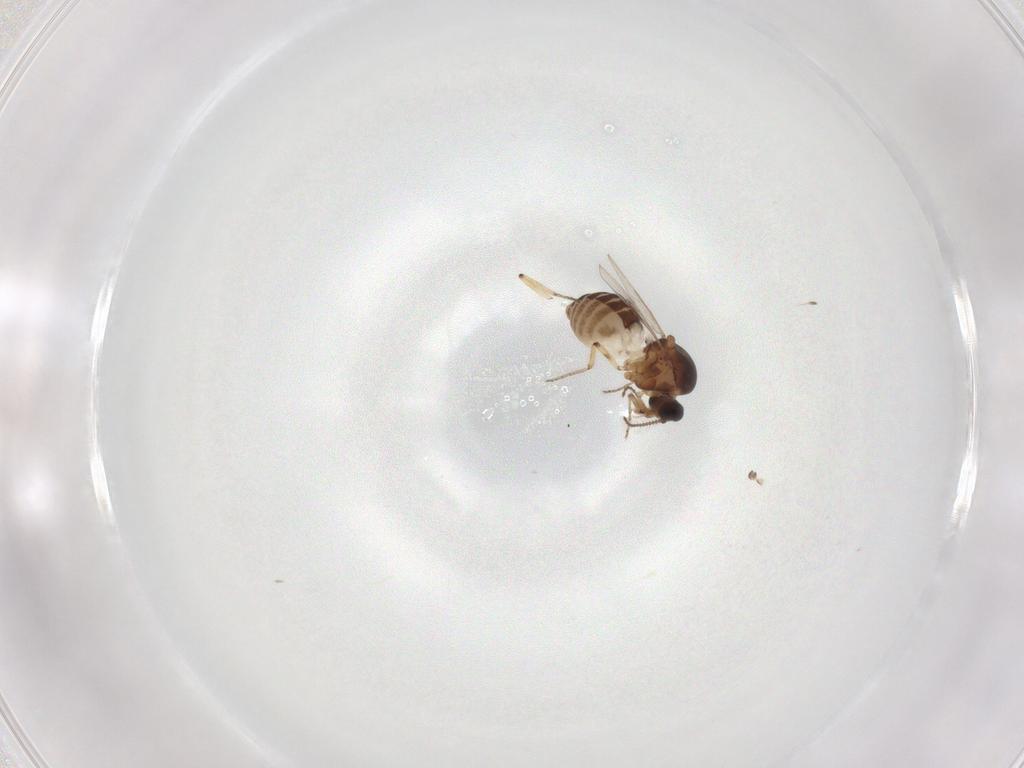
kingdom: Animalia
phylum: Arthropoda
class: Insecta
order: Diptera
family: Ceratopogonidae
